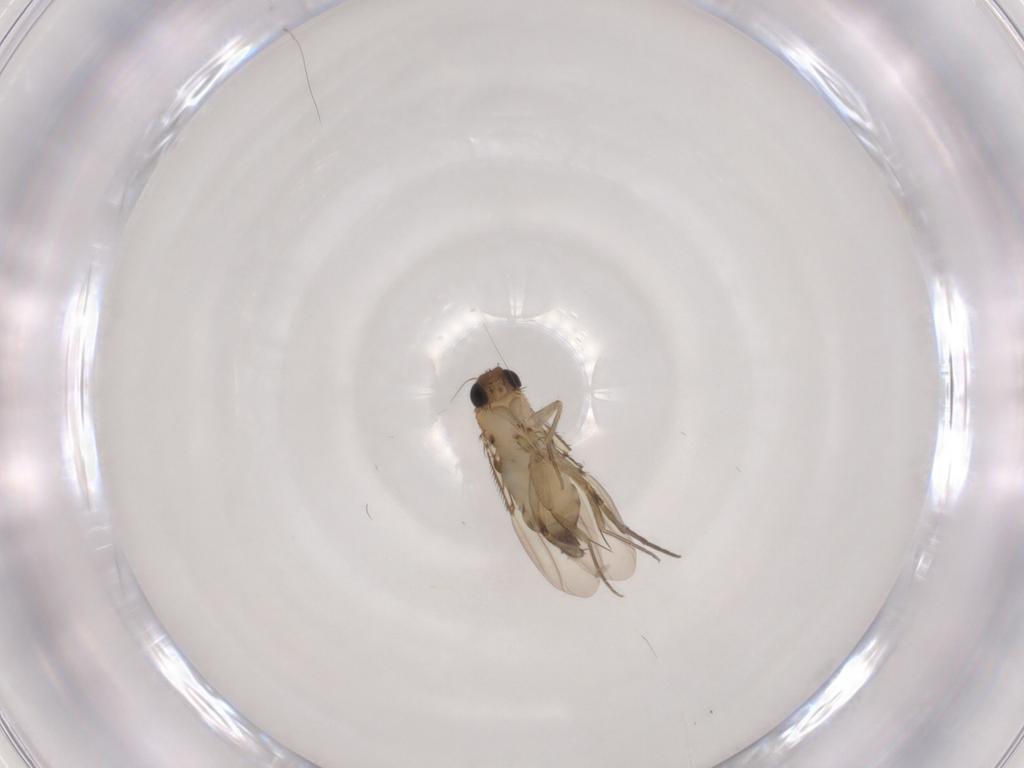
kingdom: Animalia
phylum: Arthropoda
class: Insecta
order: Diptera
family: Phoridae
